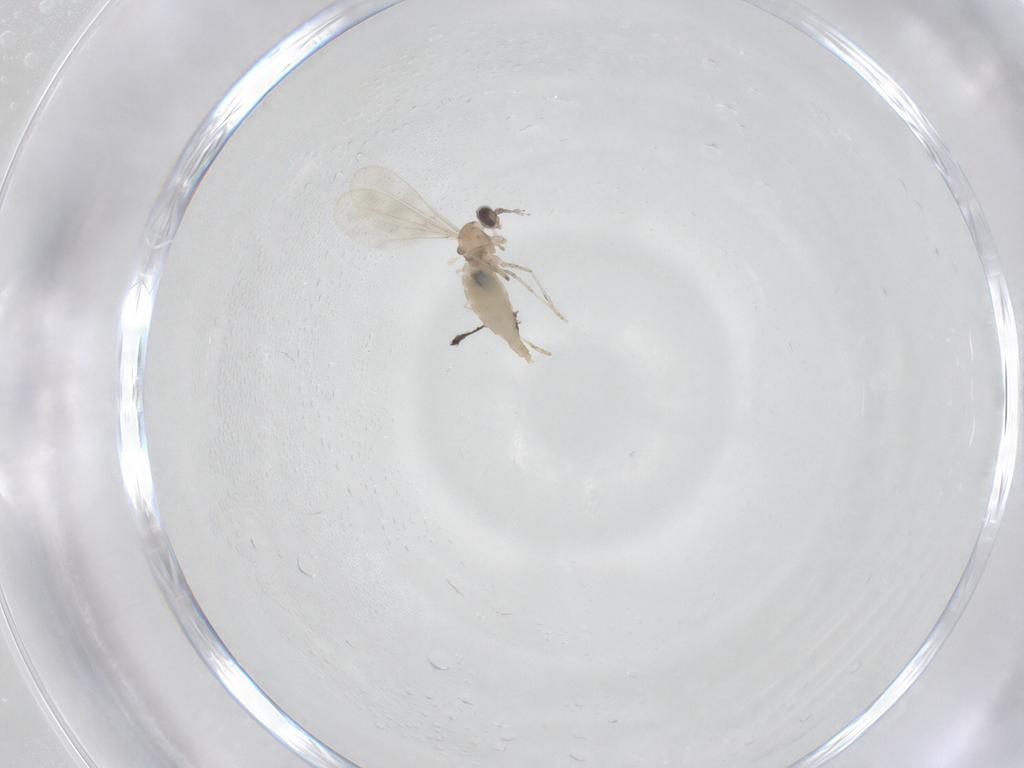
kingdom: Animalia
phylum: Arthropoda
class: Insecta
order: Diptera
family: Cecidomyiidae
